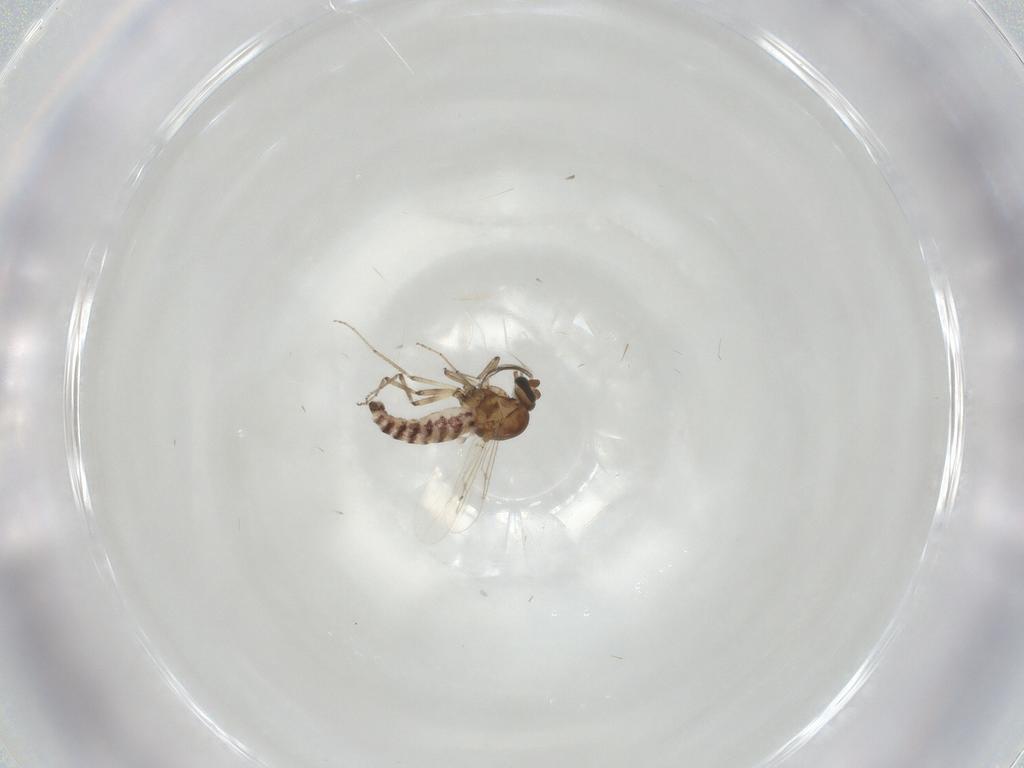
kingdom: Animalia
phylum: Arthropoda
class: Insecta
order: Diptera
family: Ceratopogonidae
